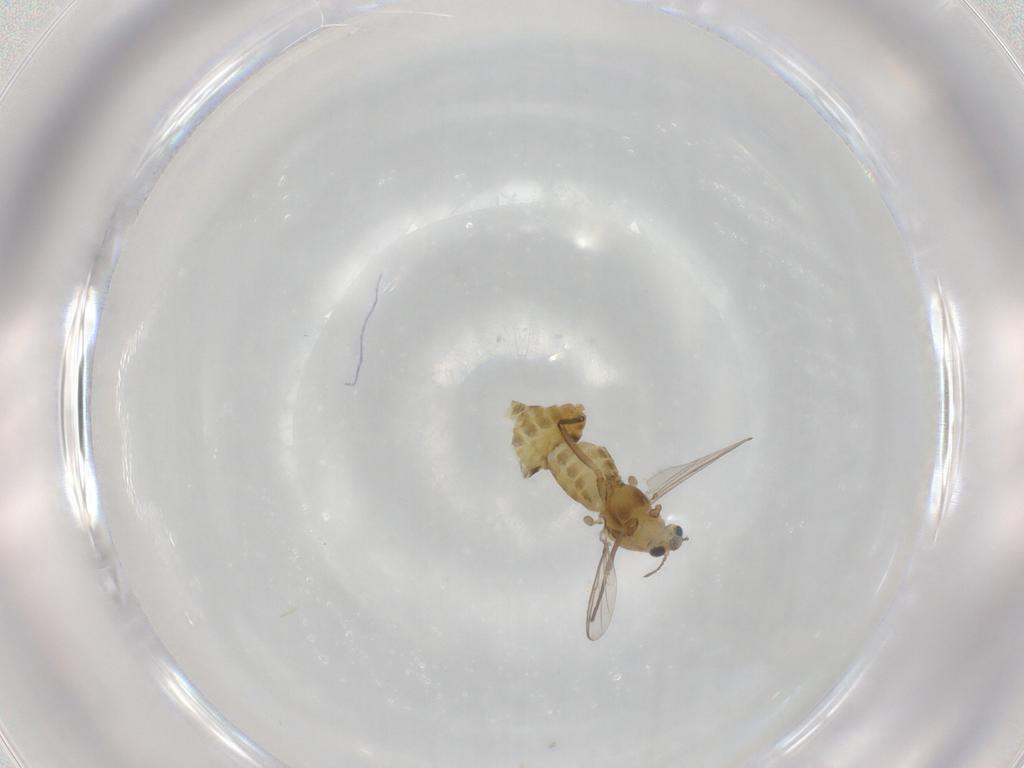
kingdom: Animalia
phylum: Arthropoda
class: Insecta
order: Diptera
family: Chironomidae
